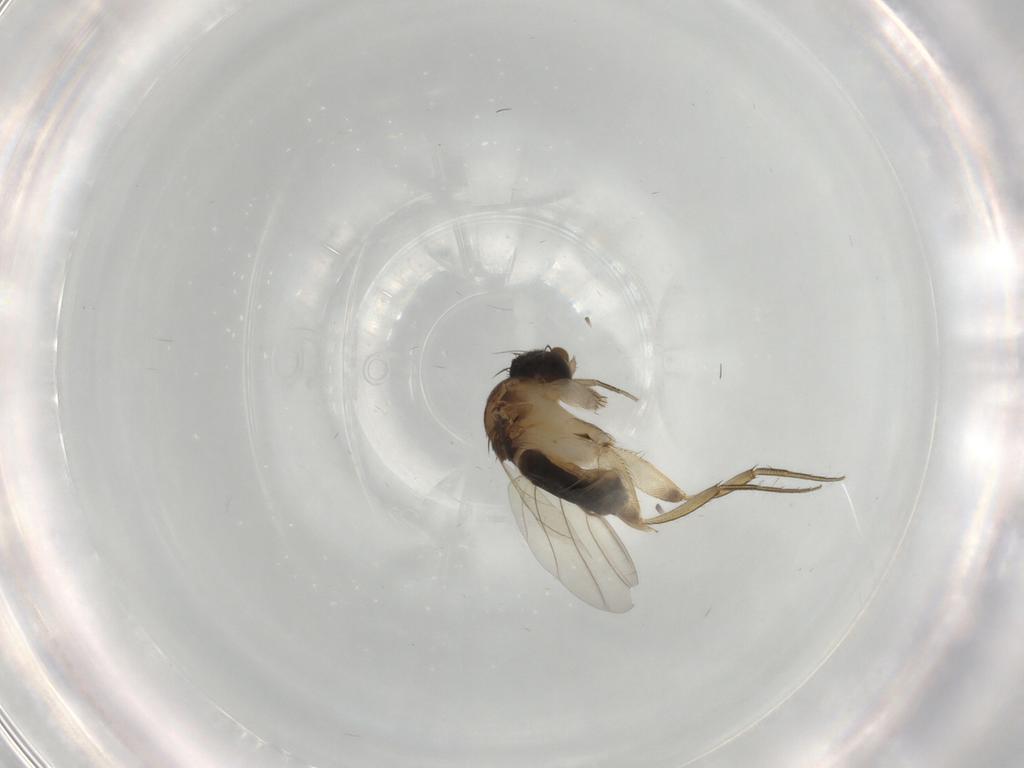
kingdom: Animalia
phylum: Arthropoda
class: Insecta
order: Diptera
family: Phoridae
